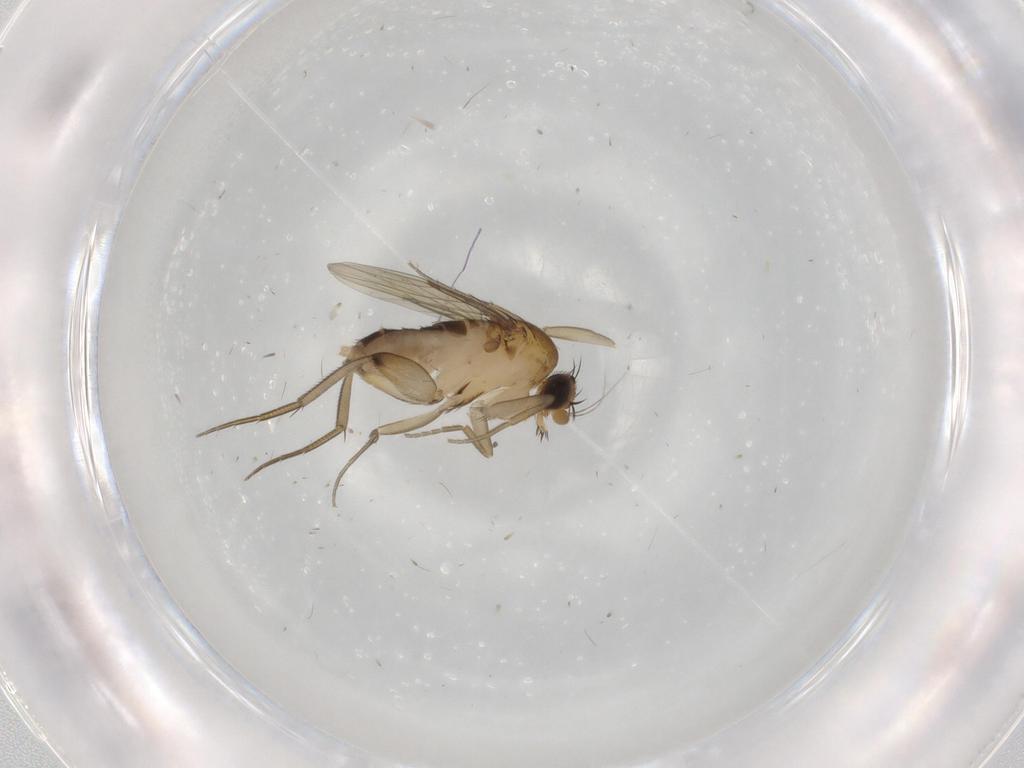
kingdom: Animalia
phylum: Arthropoda
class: Insecta
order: Diptera
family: Phoridae
